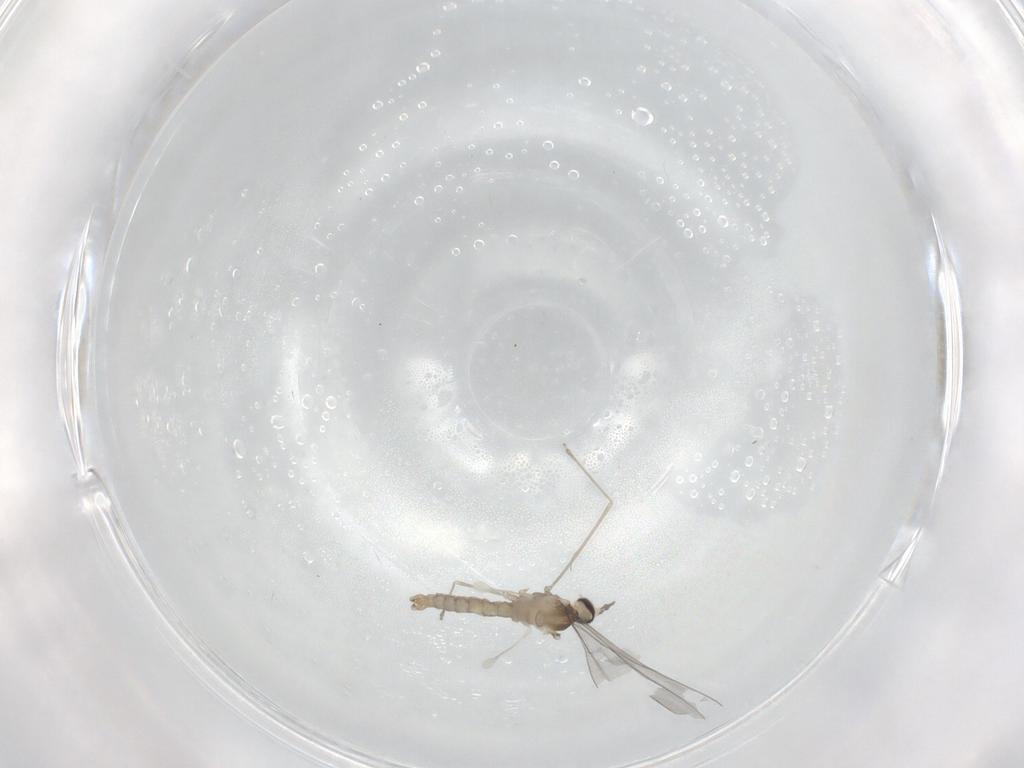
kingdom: Animalia
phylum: Arthropoda
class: Insecta
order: Diptera
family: Cecidomyiidae
